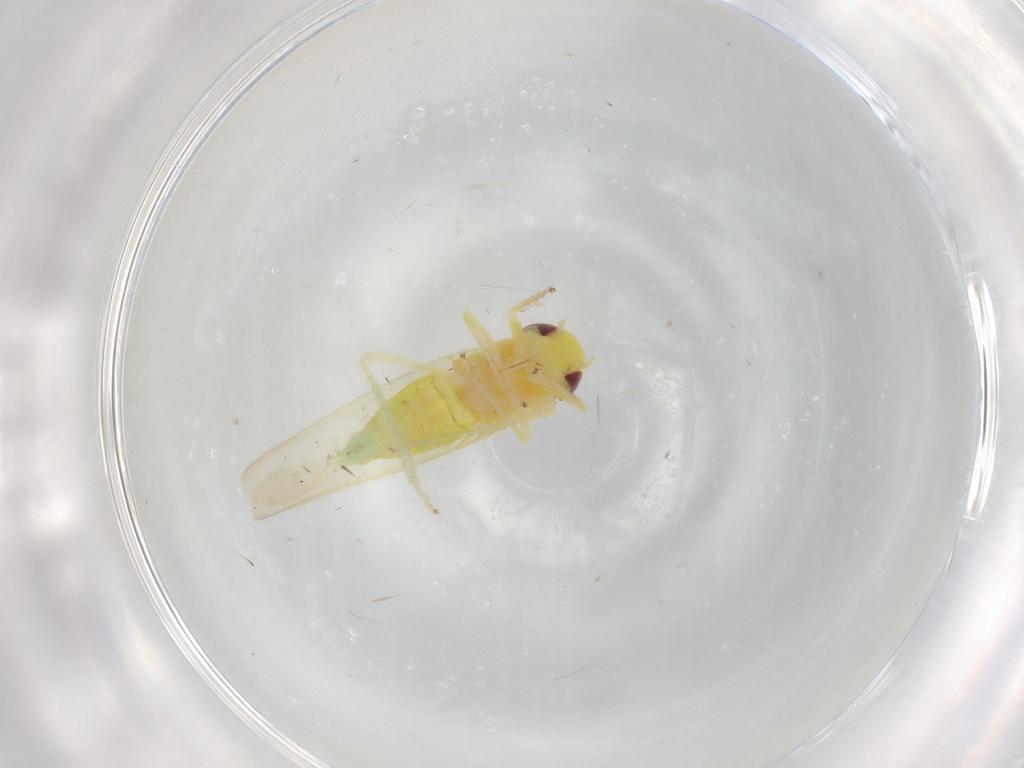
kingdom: Animalia
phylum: Arthropoda
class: Insecta
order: Hemiptera
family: Cicadellidae
